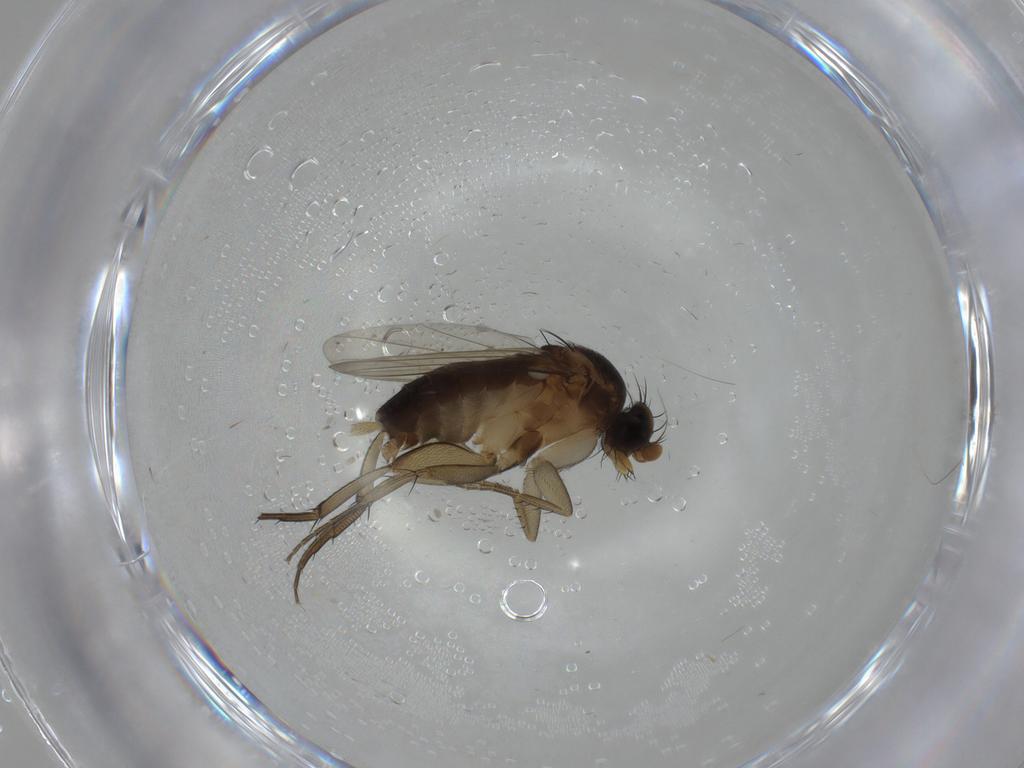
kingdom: Animalia
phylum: Arthropoda
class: Insecta
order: Diptera
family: Phoridae
